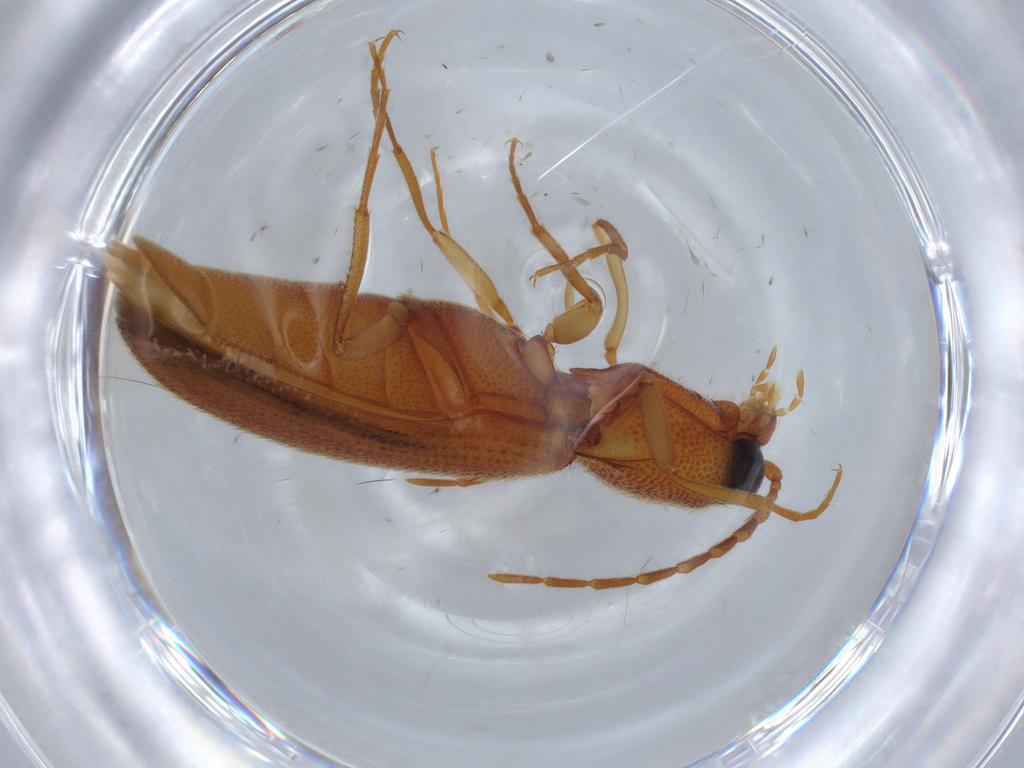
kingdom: Animalia
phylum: Arthropoda
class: Insecta
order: Coleoptera
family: Elateridae
